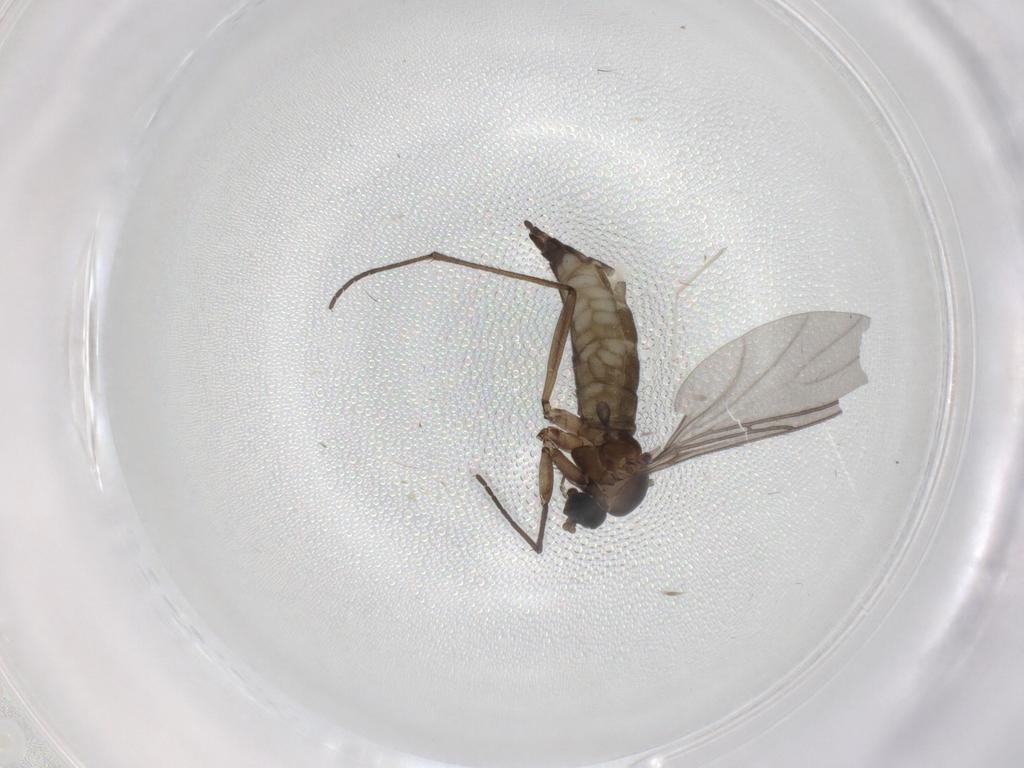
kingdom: Animalia
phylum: Arthropoda
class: Insecta
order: Diptera
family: Sciaridae
